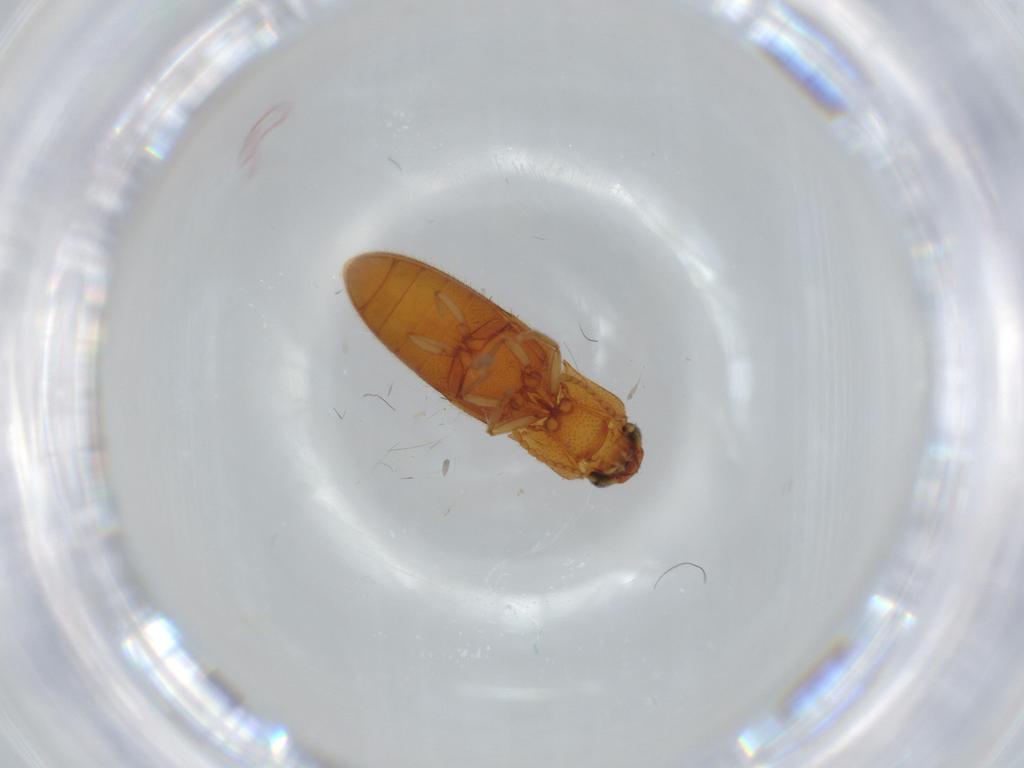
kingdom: Animalia
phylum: Arthropoda
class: Insecta
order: Coleoptera
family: Elateridae
